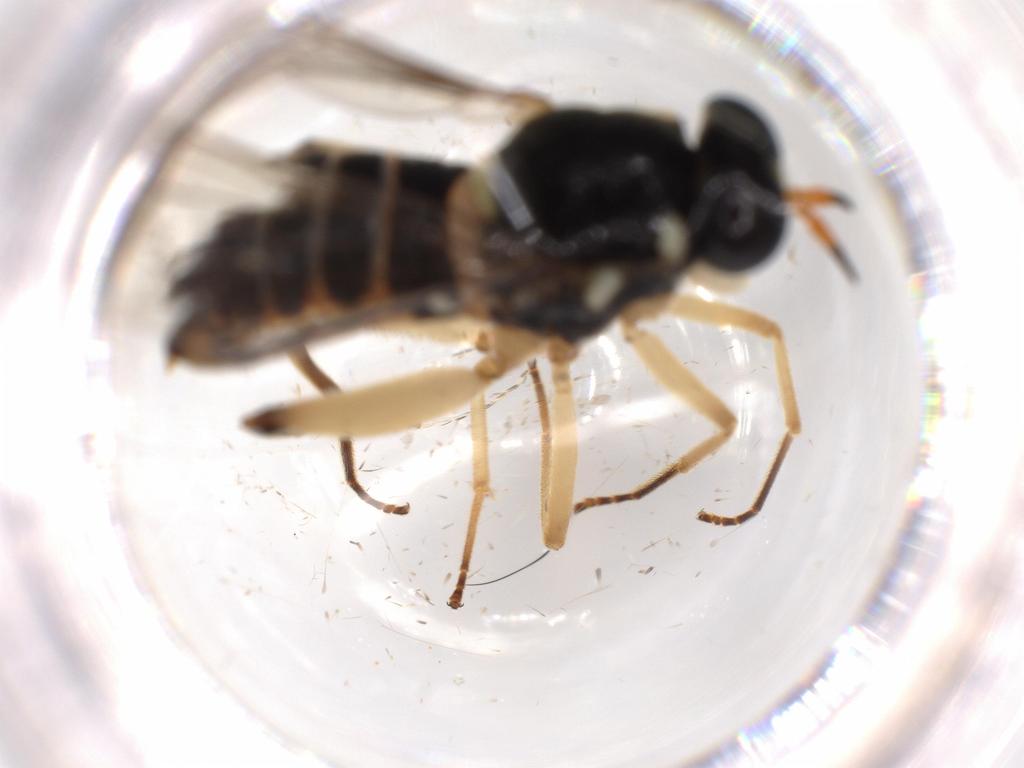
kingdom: Animalia
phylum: Arthropoda
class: Insecta
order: Diptera
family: Xylomyidae
